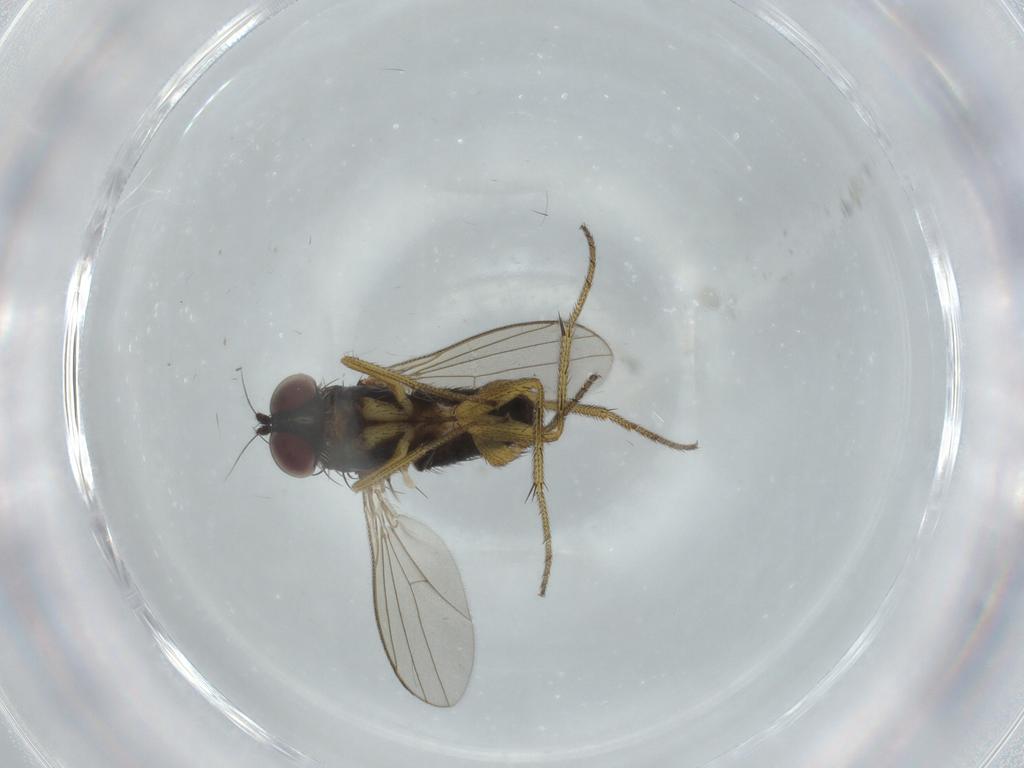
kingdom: Animalia
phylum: Arthropoda
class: Insecta
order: Diptera
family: Dolichopodidae
